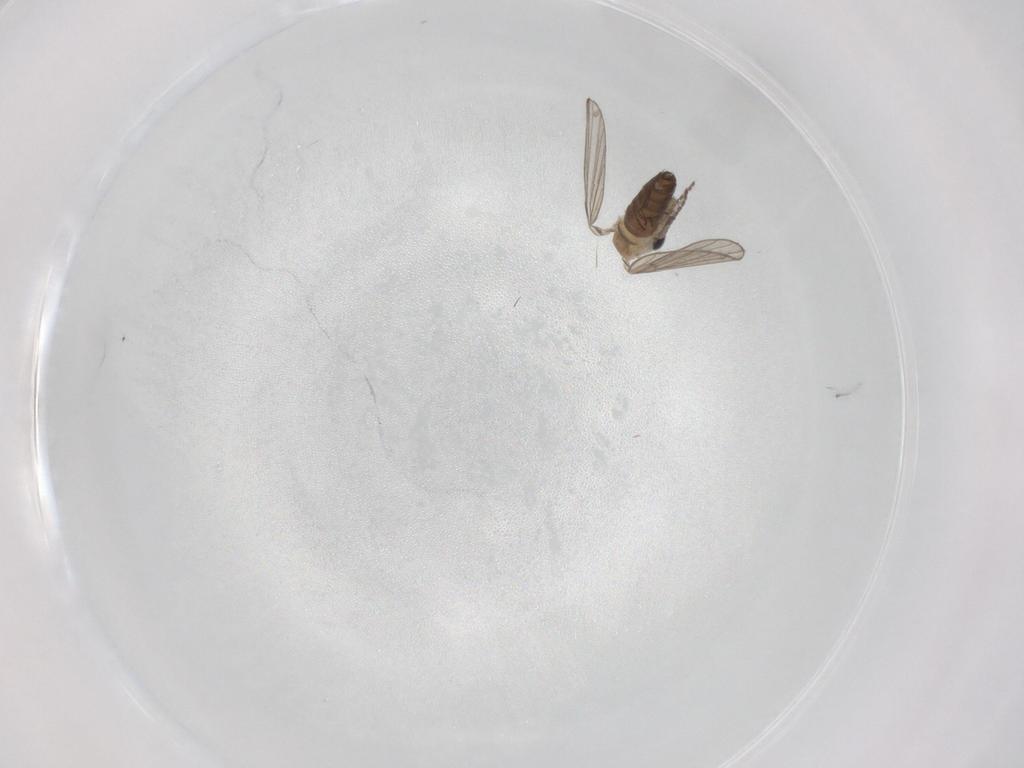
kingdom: Animalia
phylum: Arthropoda
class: Insecta
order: Diptera
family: Psychodidae
